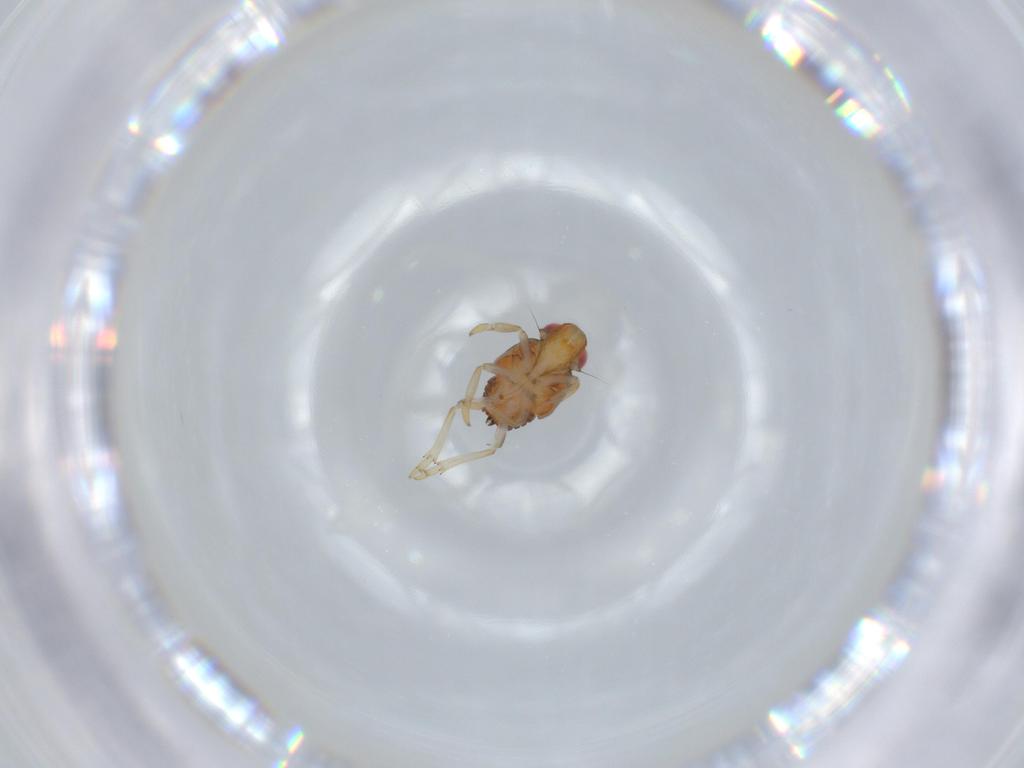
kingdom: Animalia
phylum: Arthropoda
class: Insecta
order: Hemiptera
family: Issidae
